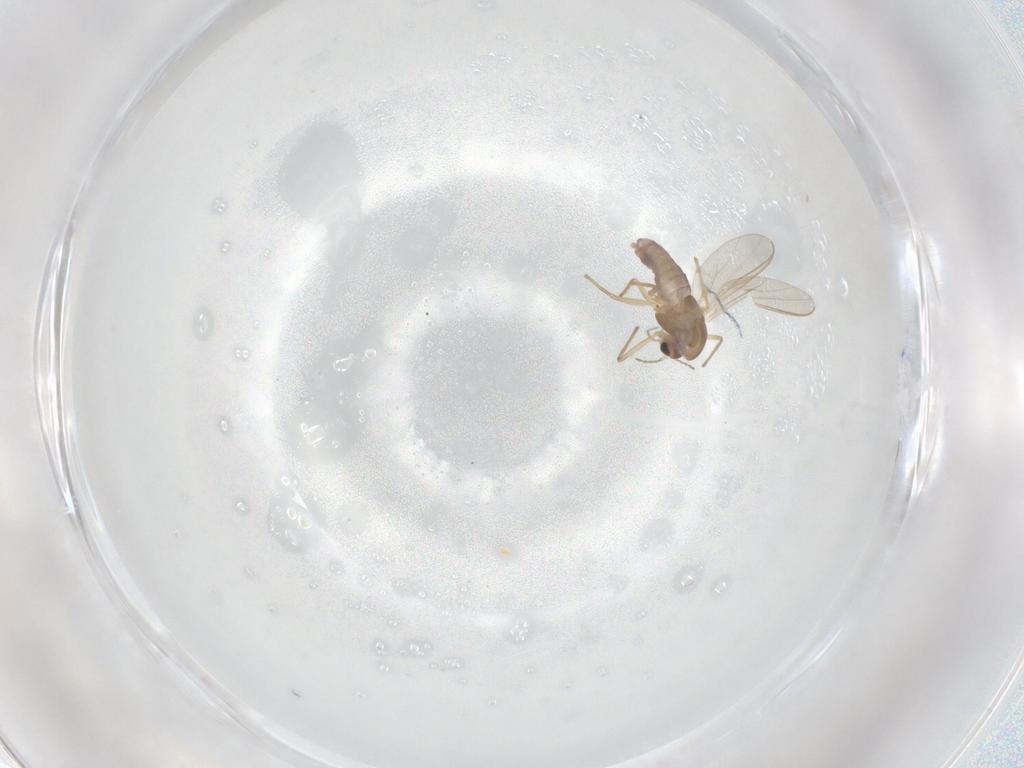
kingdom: Animalia
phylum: Arthropoda
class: Insecta
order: Diptera
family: Chironomidae
